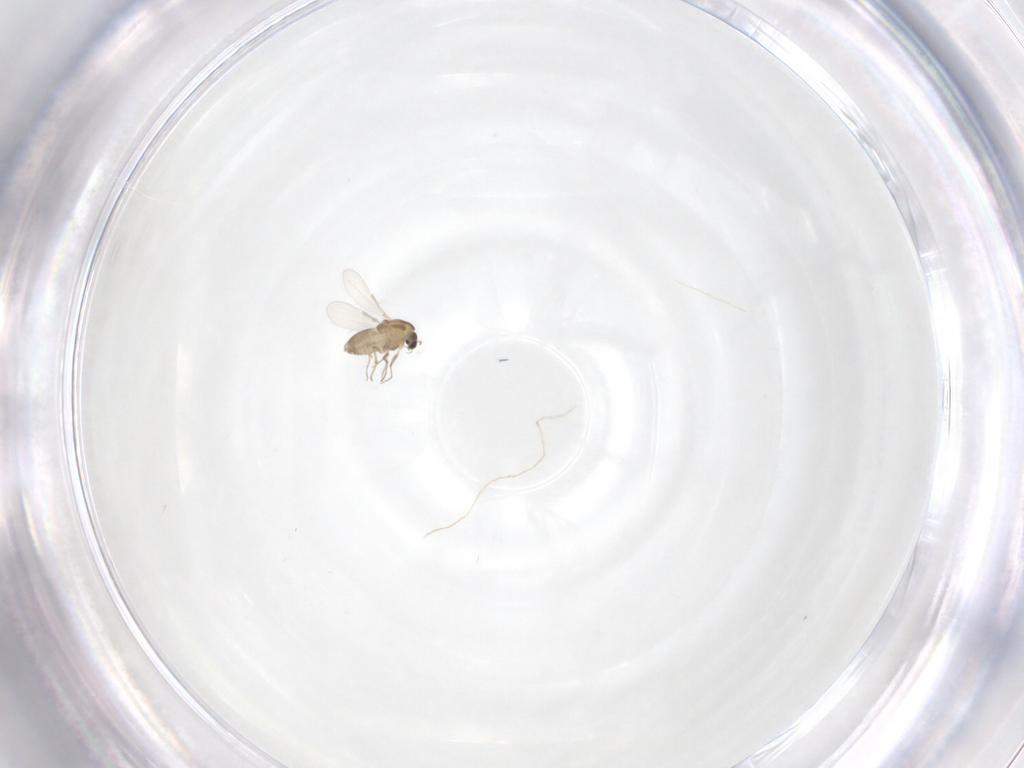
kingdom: Animalia
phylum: Arthropoda
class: Insecta
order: Diptera
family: Chironomidae
